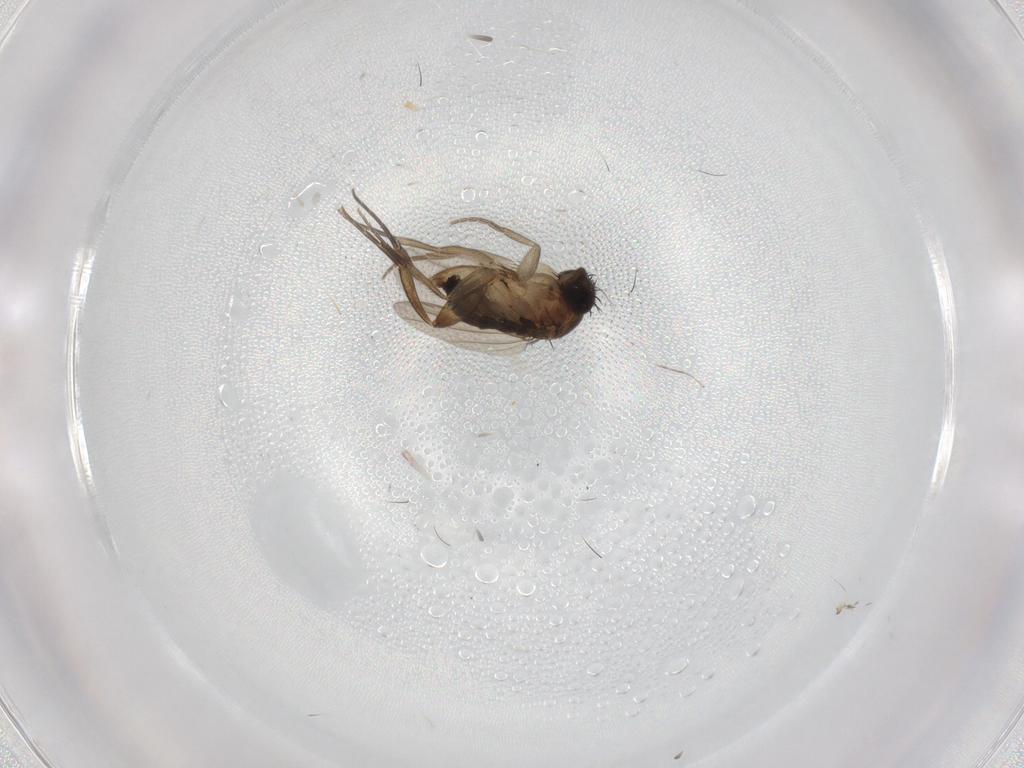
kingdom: Animalia
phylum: Arthropoda
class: Insecta
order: Diptera
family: Phoridae
